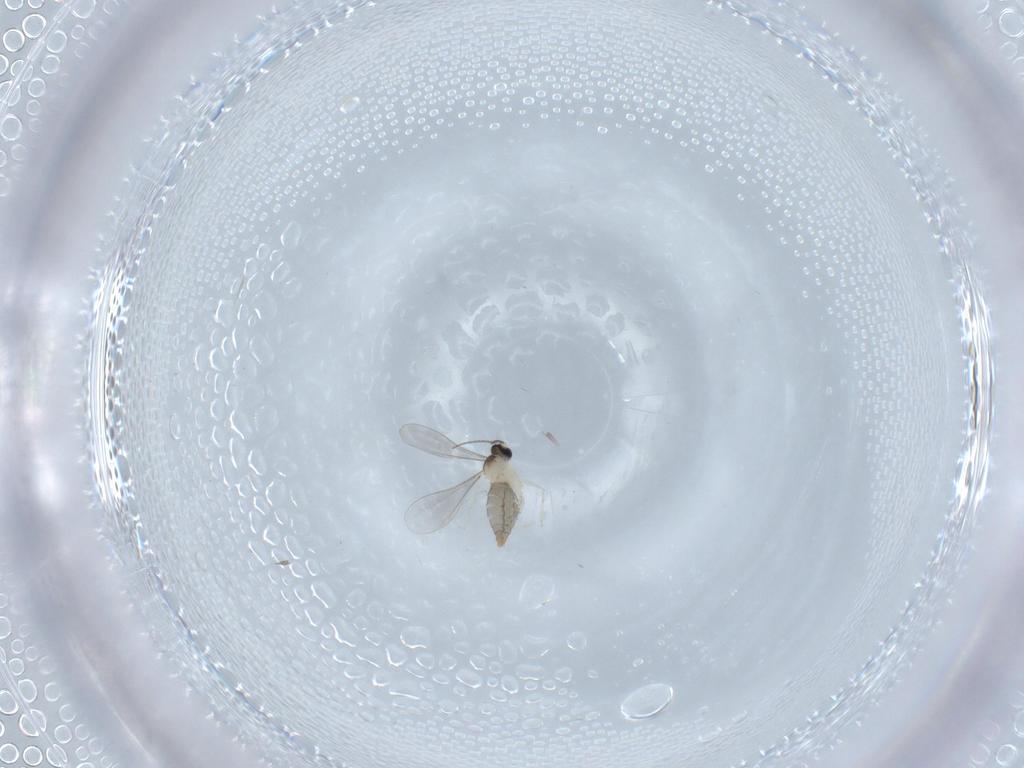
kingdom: Animalia
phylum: Arthropoda
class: Insecta
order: Diptera
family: Cecidomyiidae
